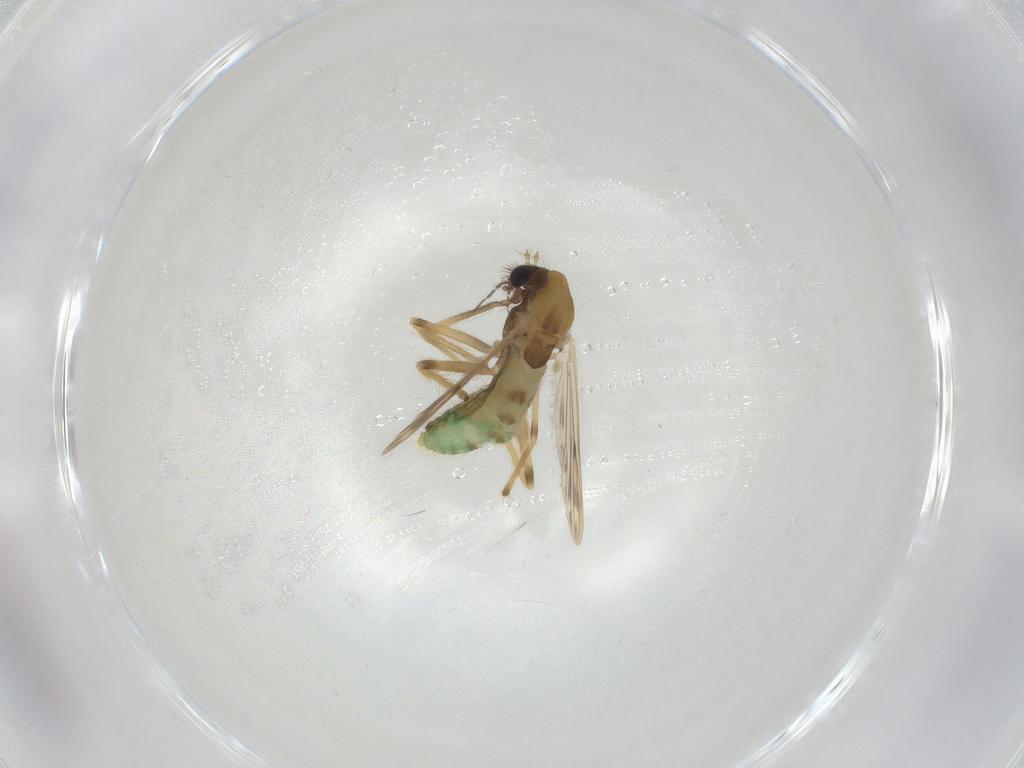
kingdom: Animalia
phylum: Arthropoda
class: Insecta
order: Diptera
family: Chironomidae
